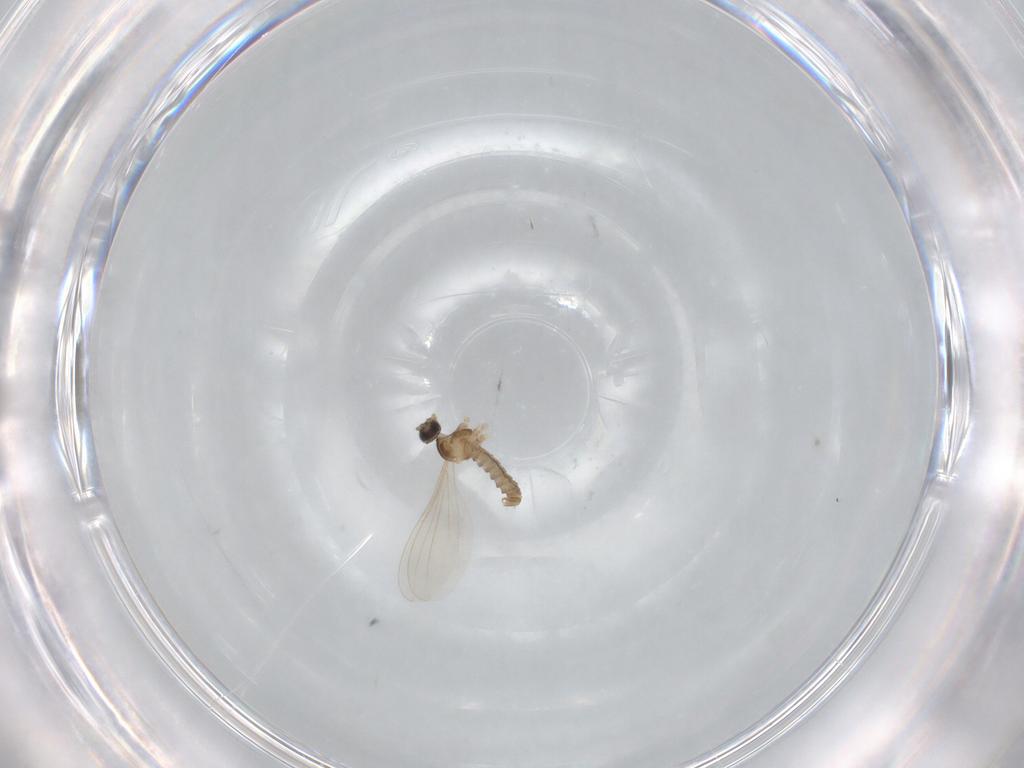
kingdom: Animalia
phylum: Arthropoda
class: Insecta
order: Diptera
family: Cecidomyiidae
